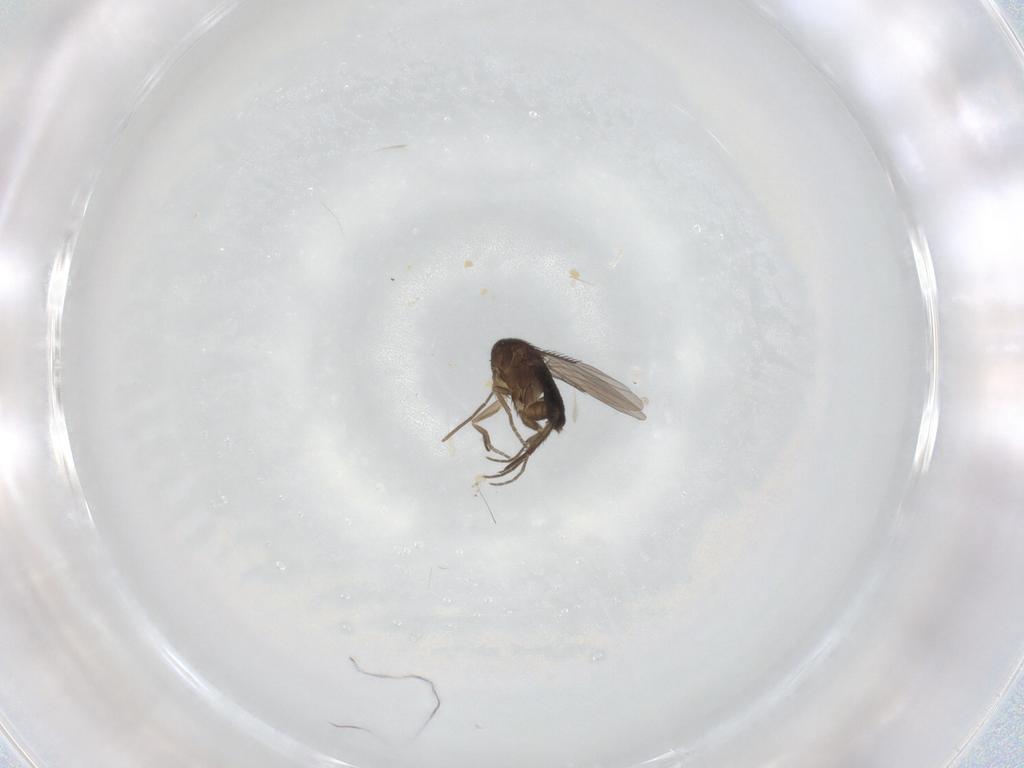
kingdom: Animalia
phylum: Arthropoda
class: Insecta
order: Diptera
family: Phoridae
